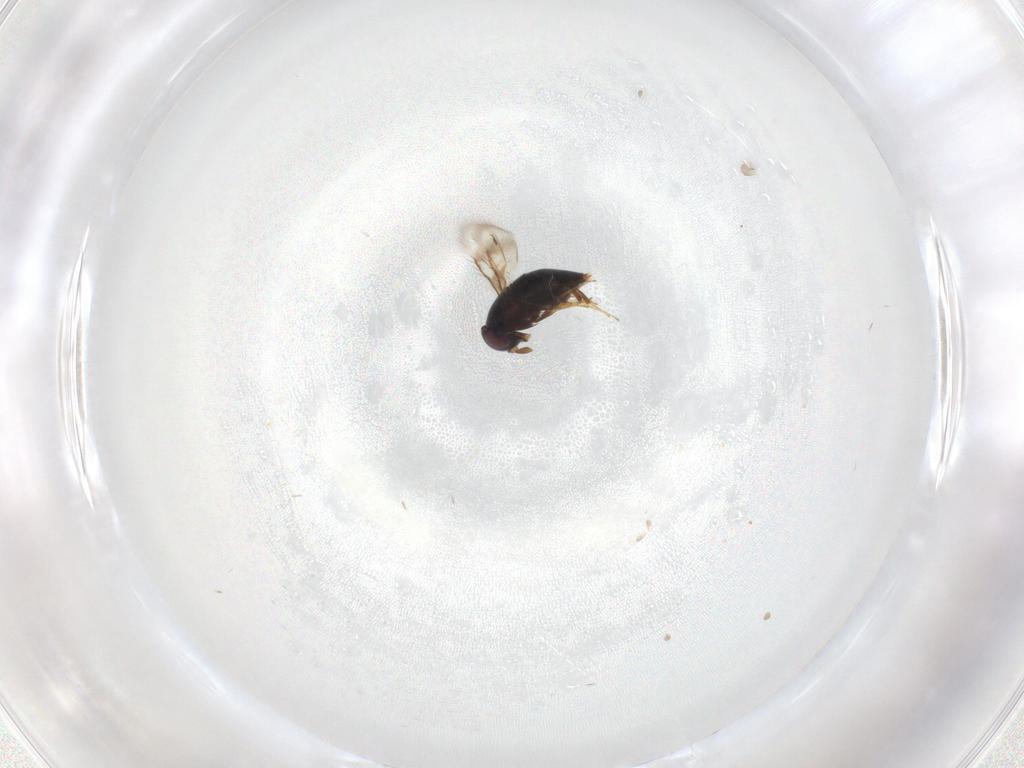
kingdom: Animalia
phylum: Arthropoda
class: Insecta
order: Hymenoptera
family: Signiphoridae
